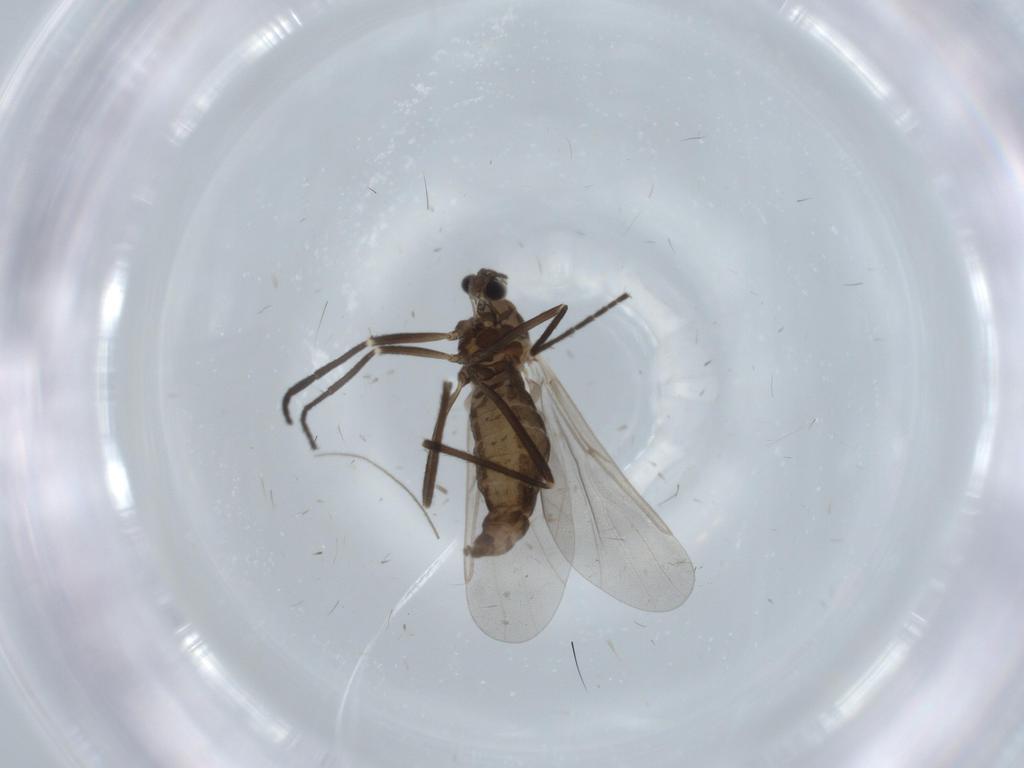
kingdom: Animalia
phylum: Arthropoda
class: Insecta
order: Diptera
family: Cecidomyiidae
